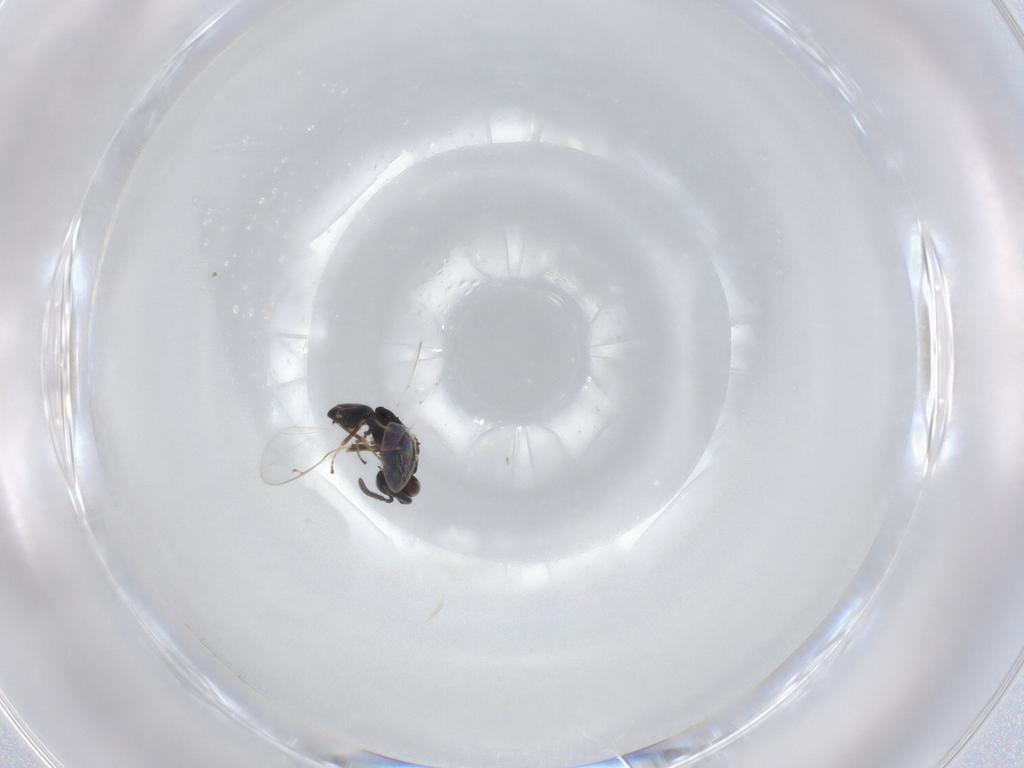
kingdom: Animalia
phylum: Arthropoda
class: Insecta
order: Hymenoptera
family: Pteromalidae
